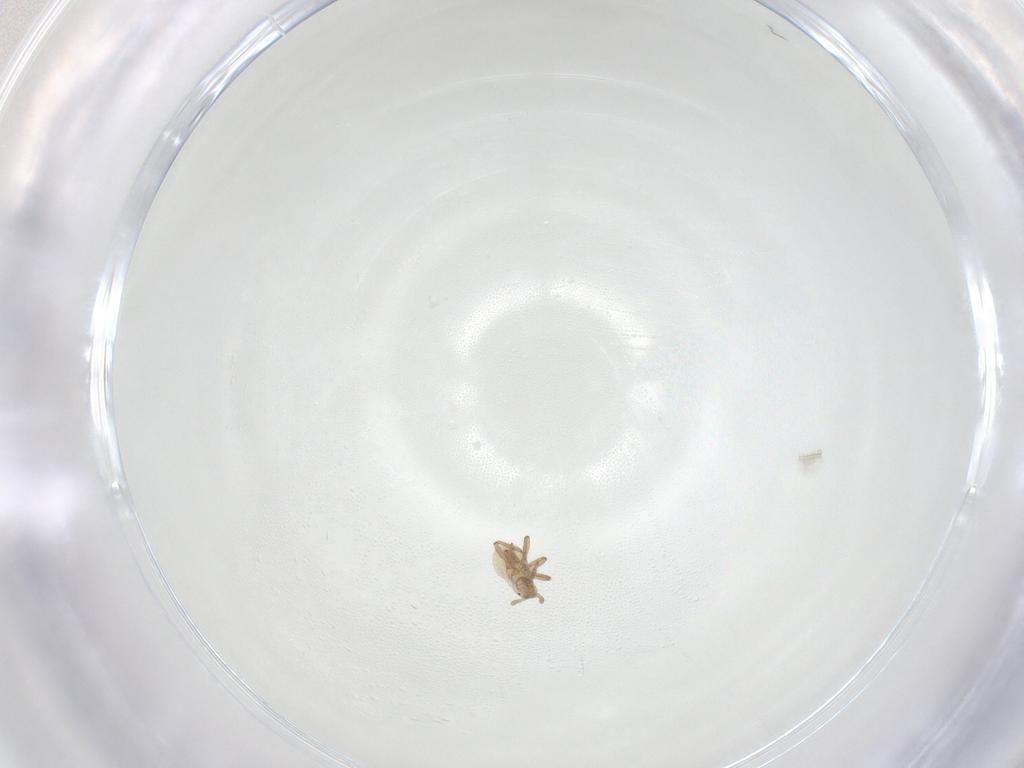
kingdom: Animalia
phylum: Arthropoda
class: Insecta
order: Hemiptera
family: Aphididae
